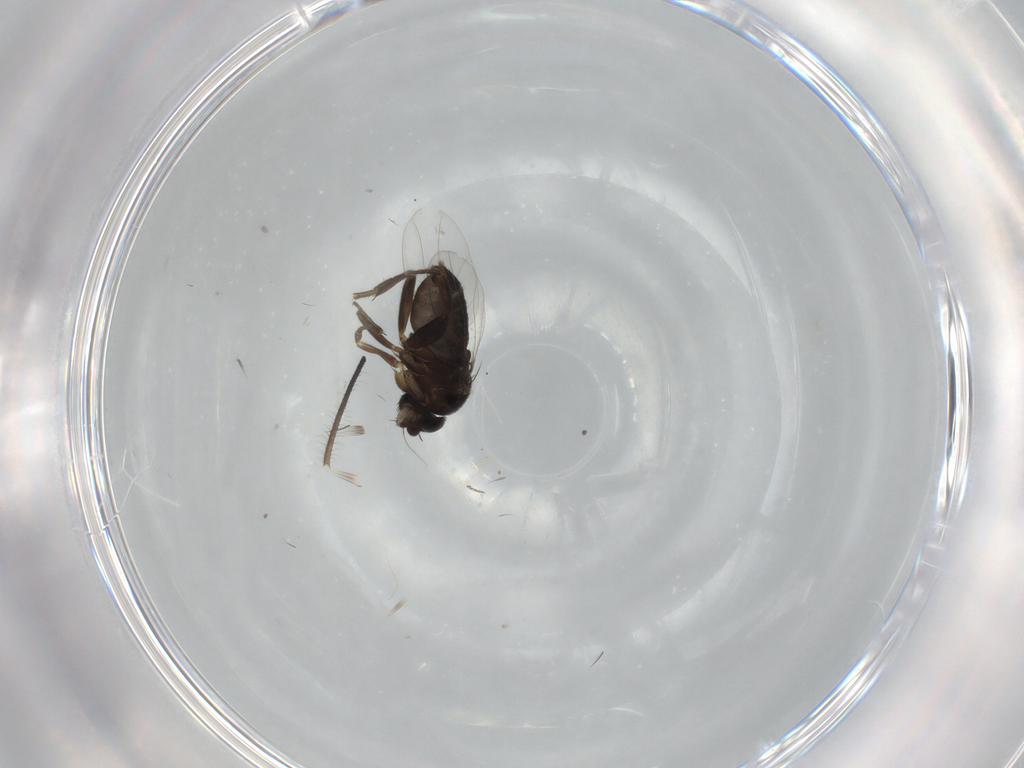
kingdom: Animalia
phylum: Arthropoda
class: Insecta
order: Diptera
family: Phoridae
